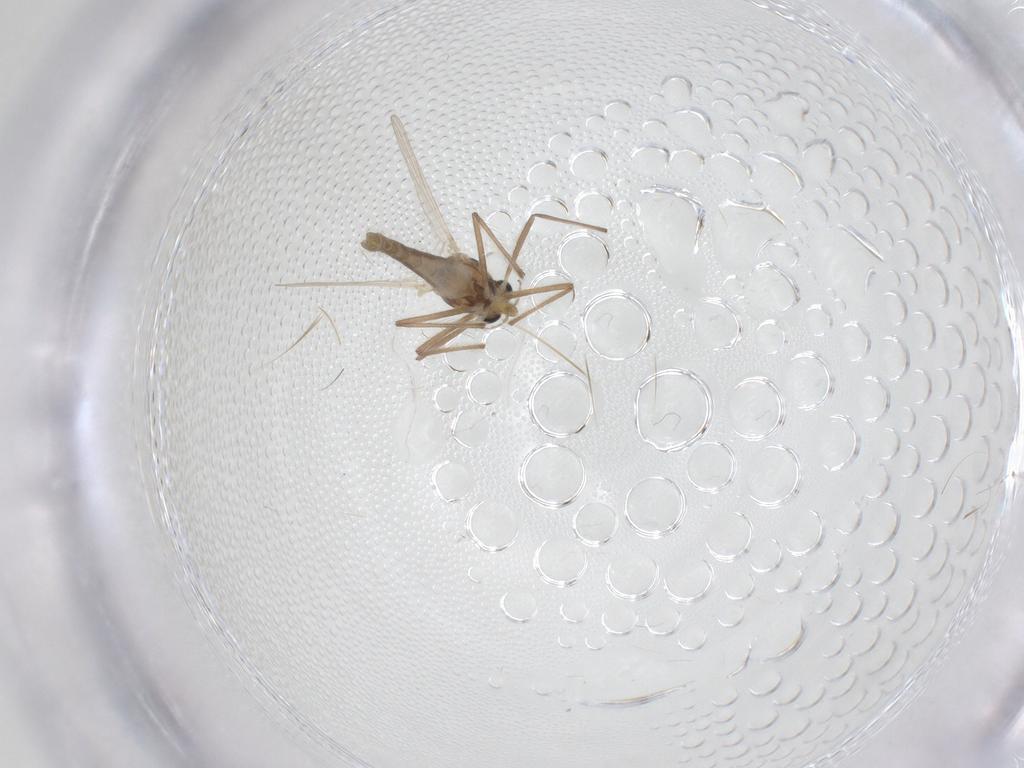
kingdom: Animalia
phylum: Arthropoda
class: Insecta
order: Diptera
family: Chironomidae
